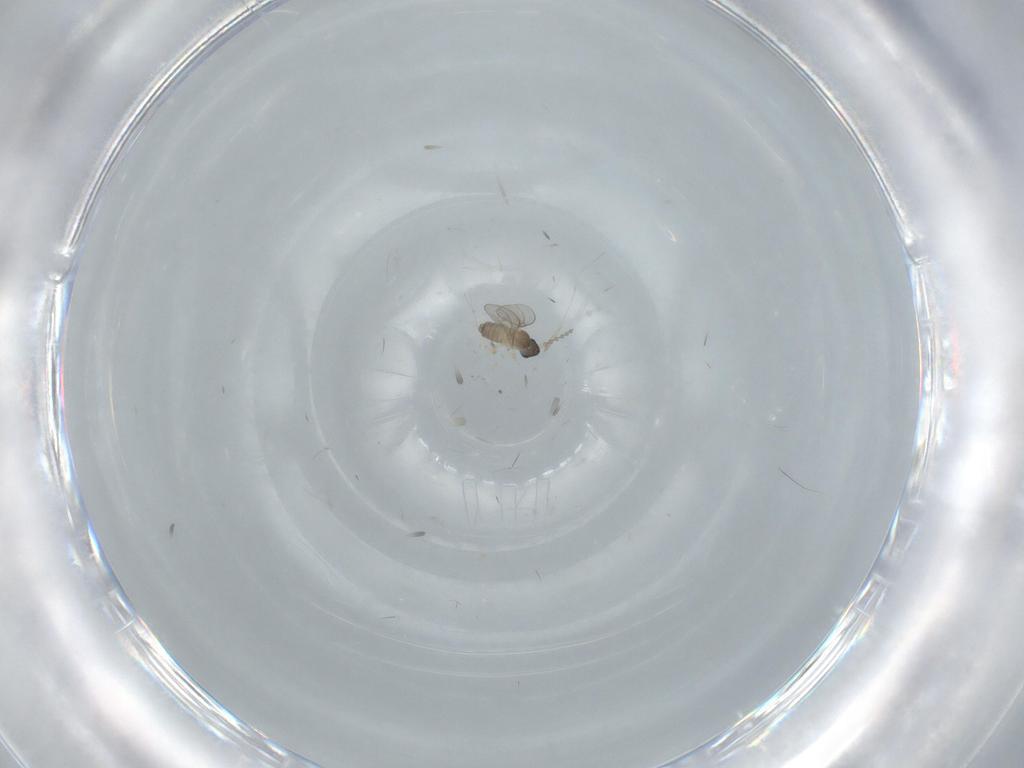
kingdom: Animalia
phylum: Arthropoda
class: Insecta
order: Diptera
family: Cecidomyiidae
